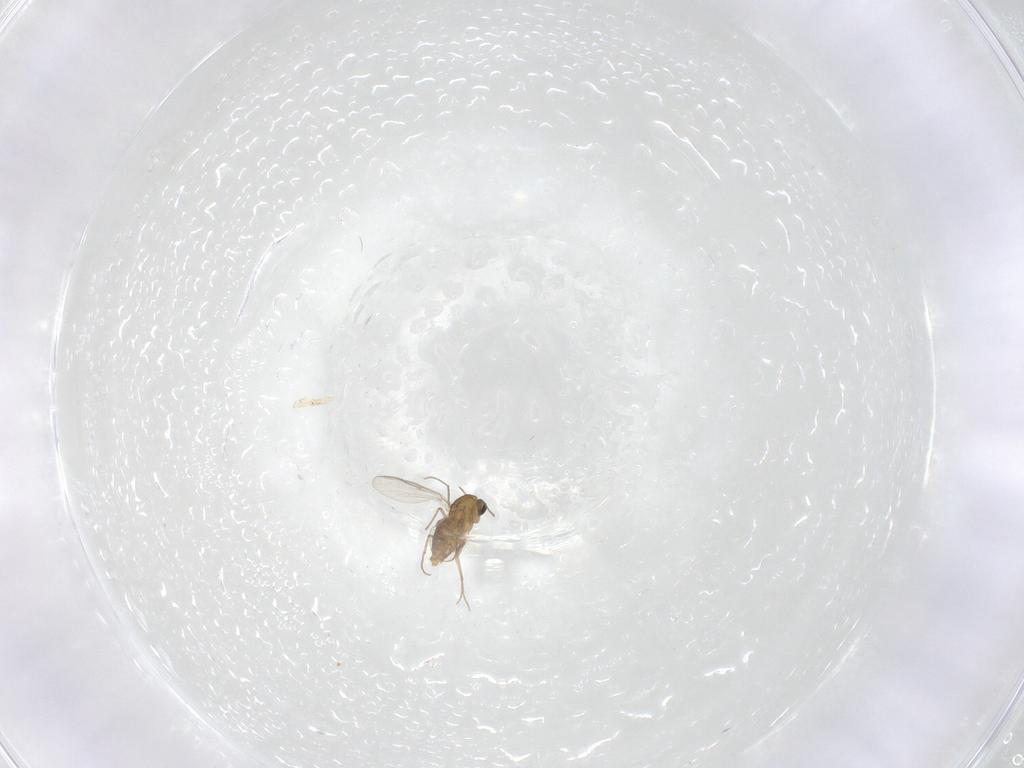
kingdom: Animalia
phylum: Arthropoda
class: Insecta
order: Diptera
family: Chironomidae
